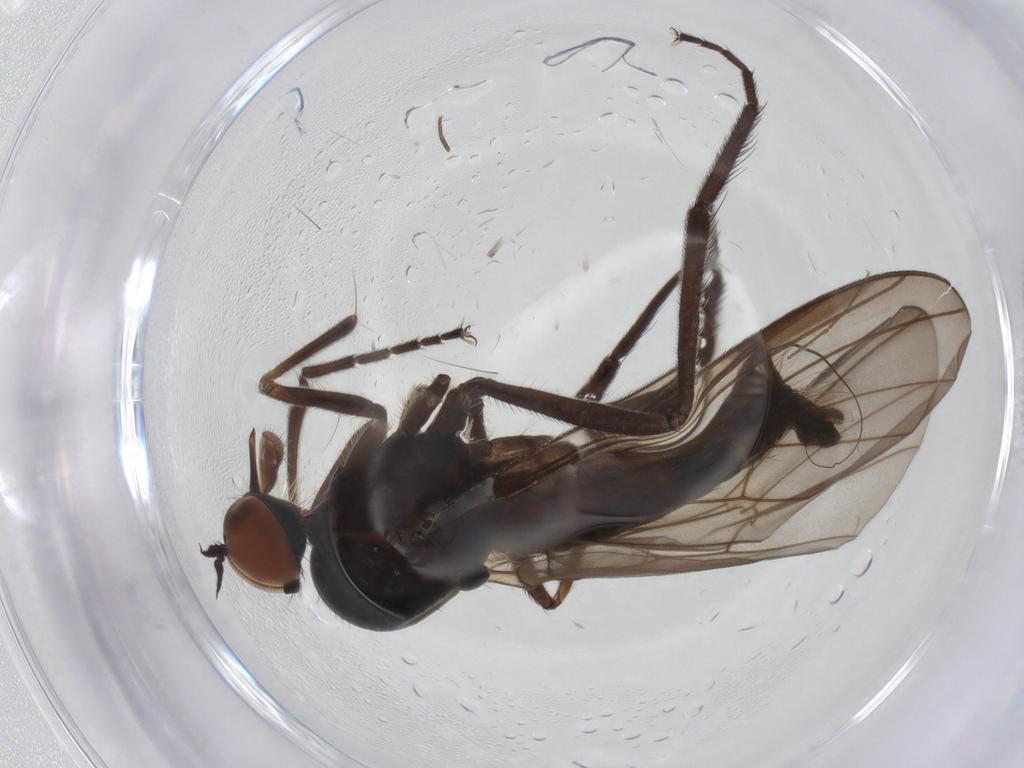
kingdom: Animalia
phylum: Arthropoda
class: Insecta
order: Diptera
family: Empididae
